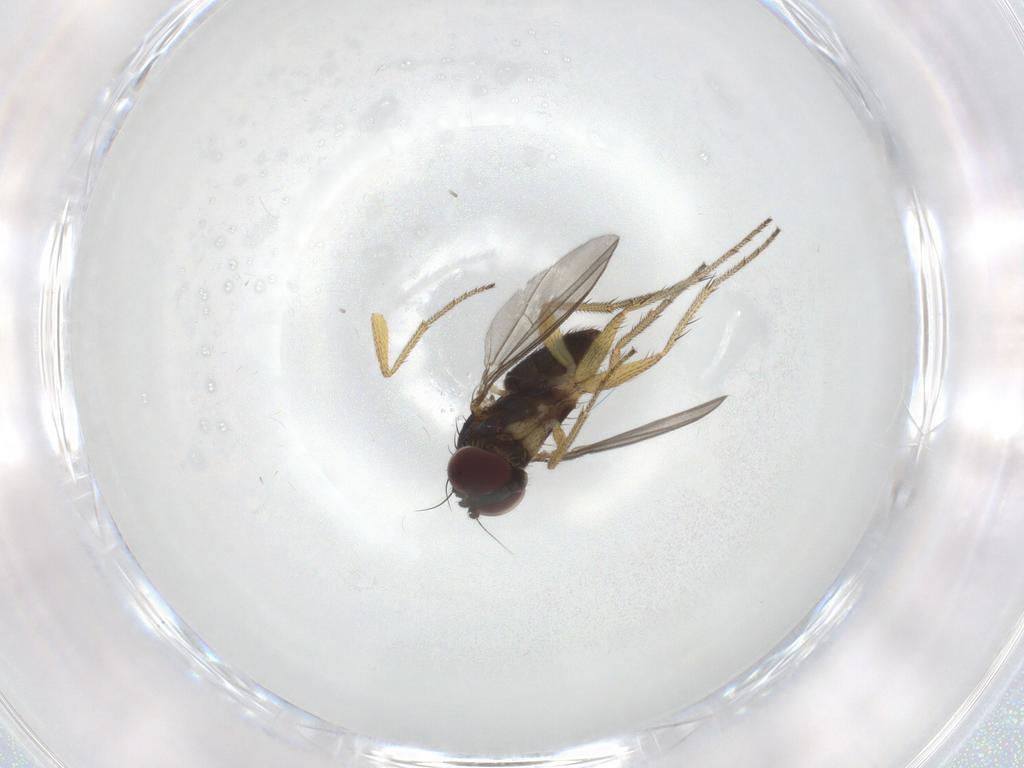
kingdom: Animalia
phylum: Arthropoda
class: Insecta
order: Diptera
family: Dolichopodidae
